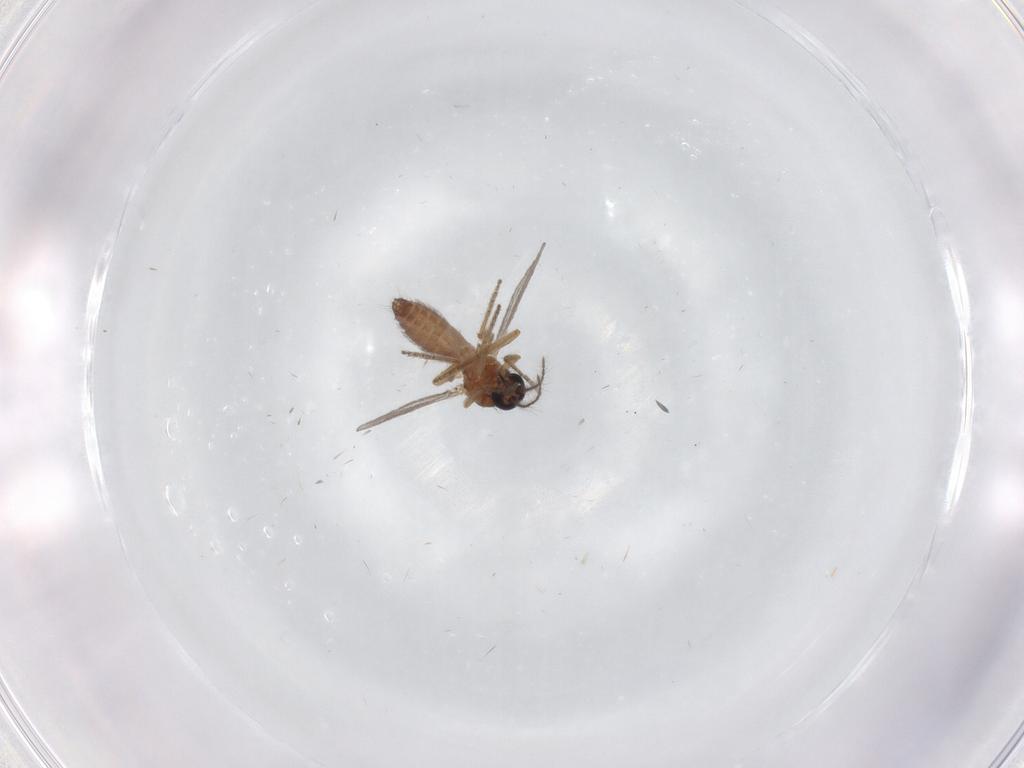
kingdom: Animalia
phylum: Arthropoda
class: Insecta
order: Diptera
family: Ceratopogonidae
